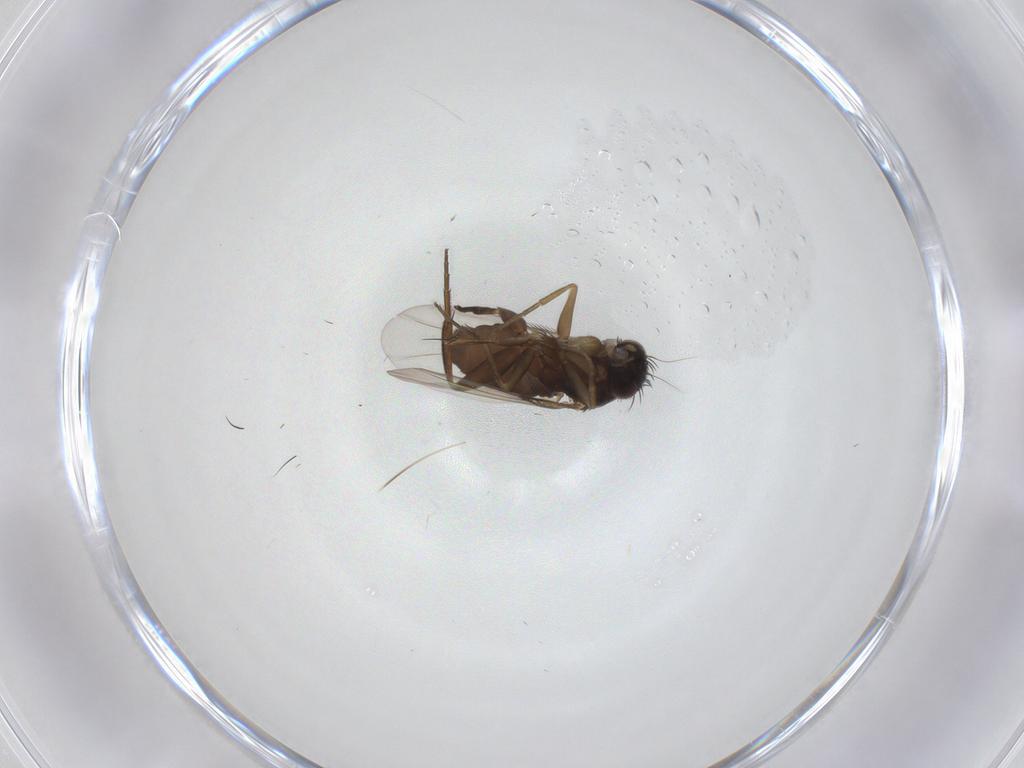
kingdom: Animalia
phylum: Arthropoda
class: Insecta
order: Diptera
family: Phoridae
